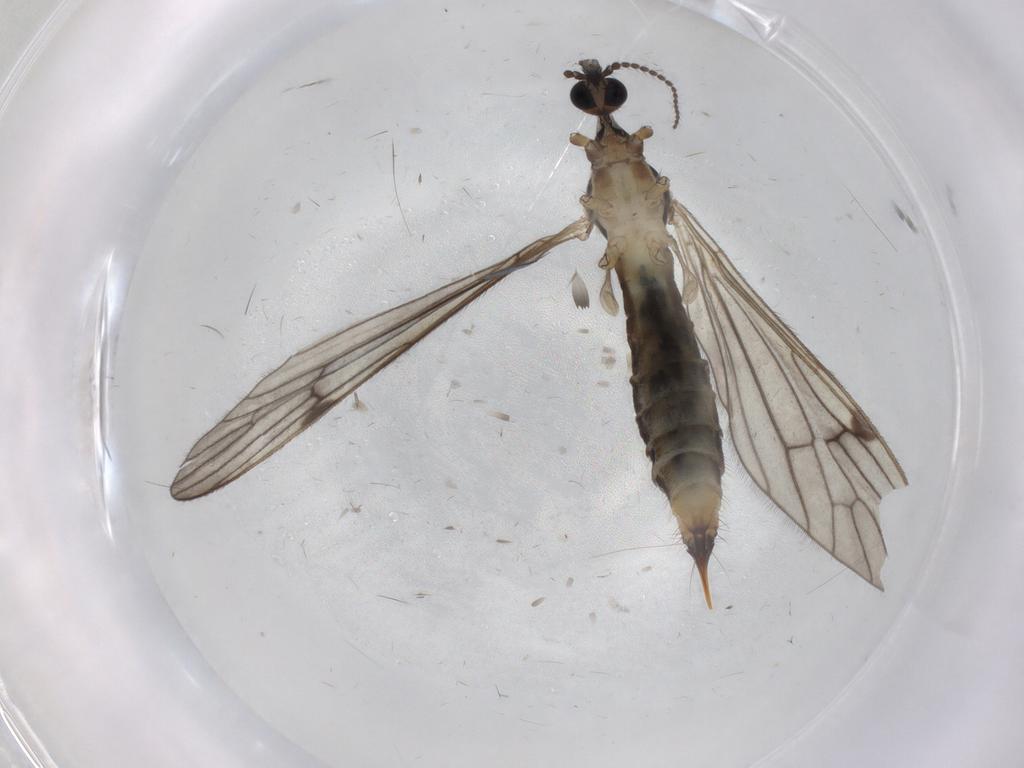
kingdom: Animalia
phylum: Arthropoda
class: Insecta
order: Diptera
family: Limoniidae
